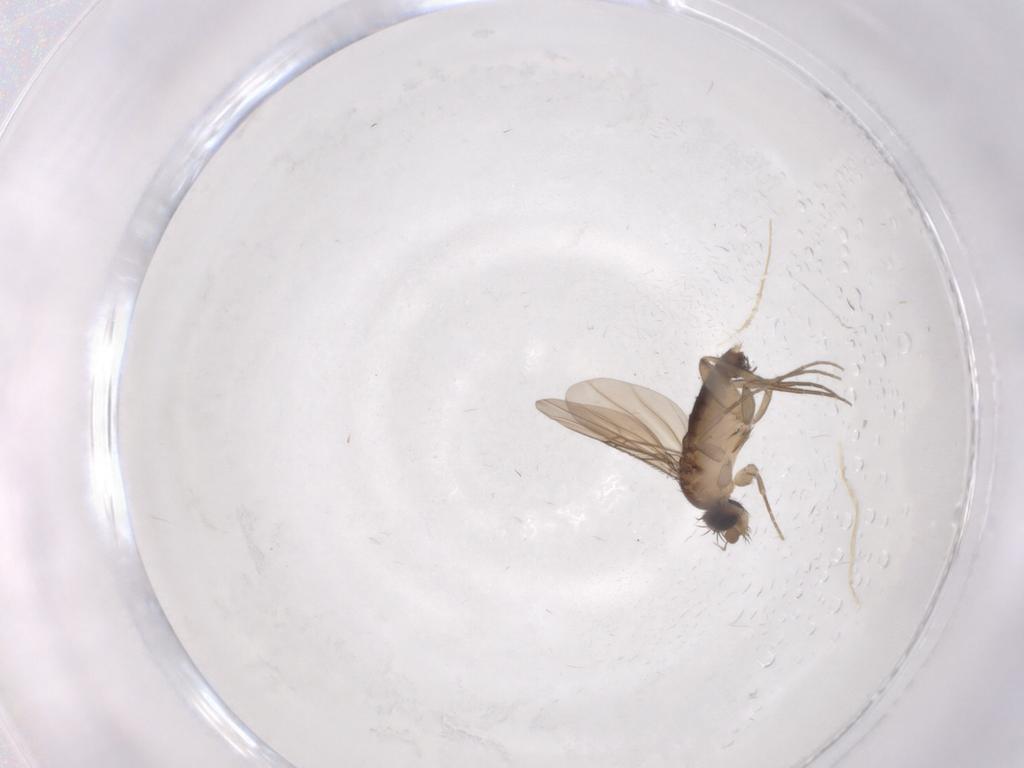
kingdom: Animalia
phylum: Arthropoda
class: Insecta
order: Diptera
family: Phoridae
